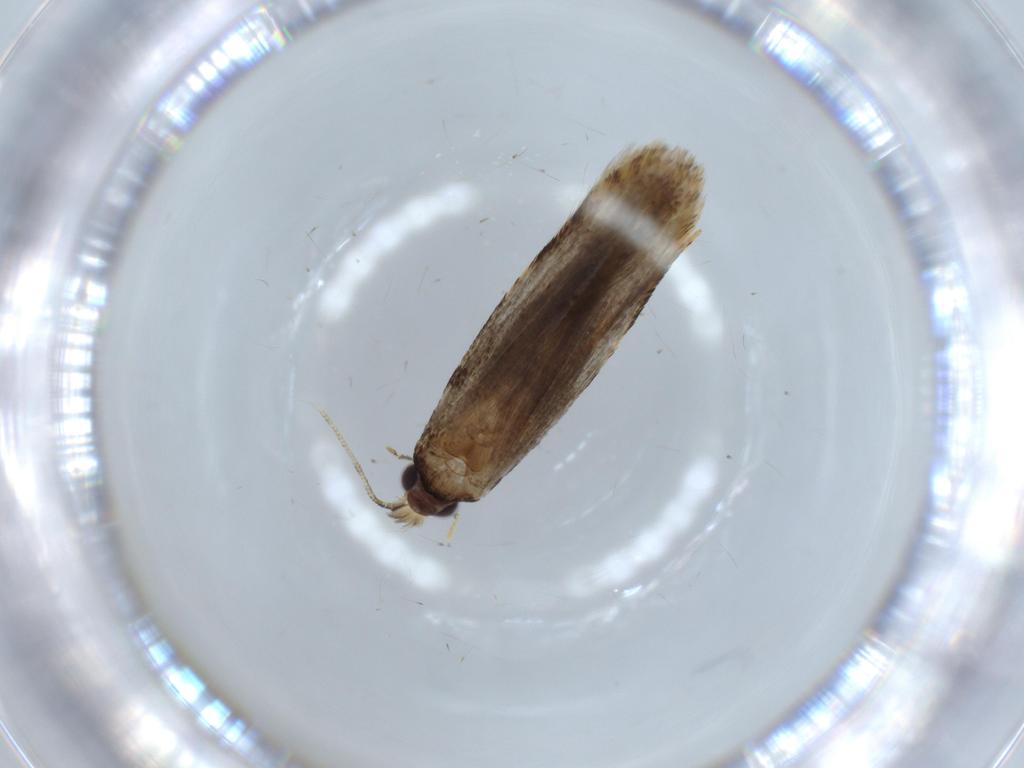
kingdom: Animalia
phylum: Arthropoda
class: Insecta
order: Lepidoptera
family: Tineidae
